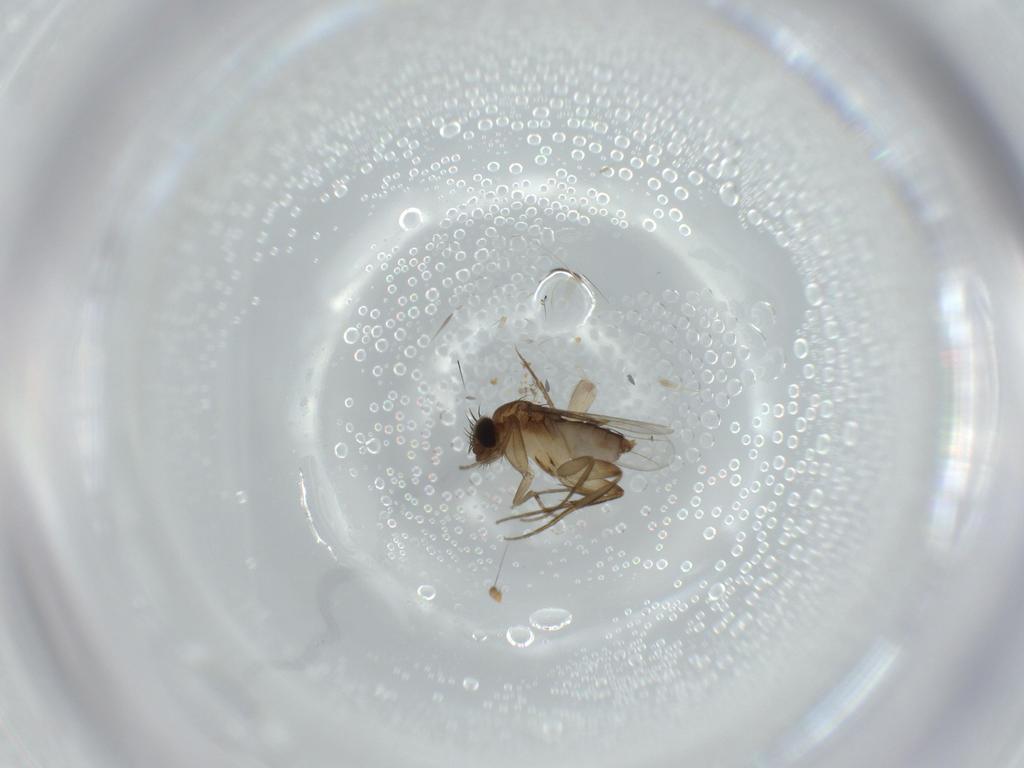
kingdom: Animalia
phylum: Arthropoda
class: Insecta
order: Diptera
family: Phoridae
